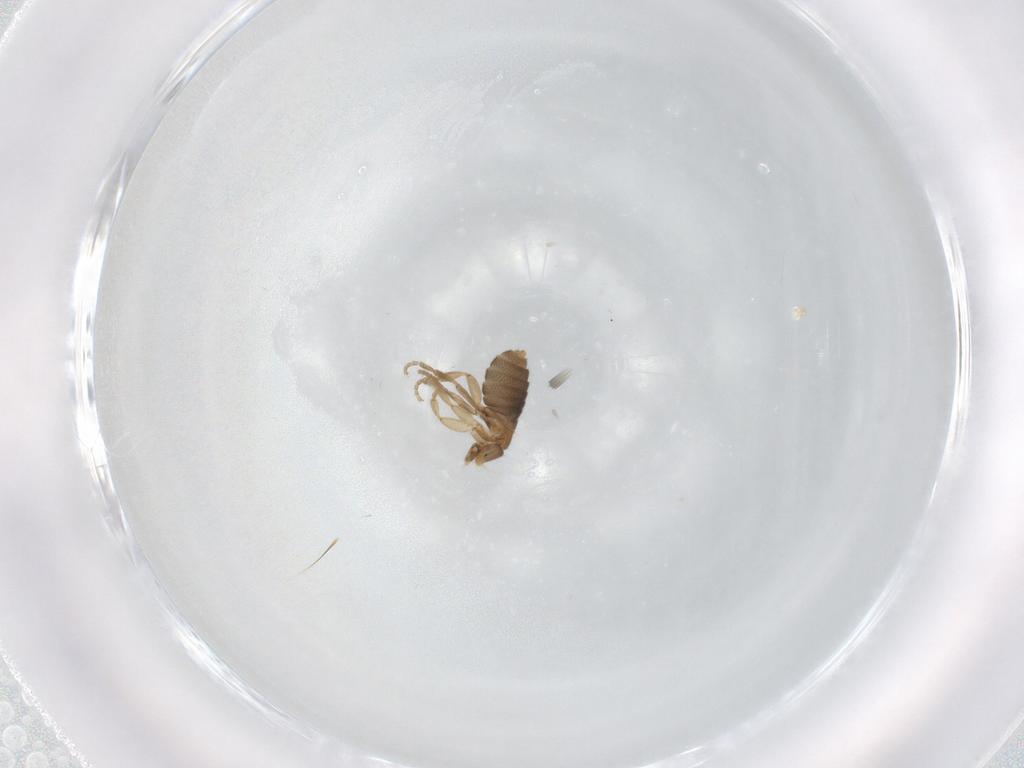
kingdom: Animalia
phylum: Arthropoda
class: Insecta
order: Diptera
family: Phoridae
